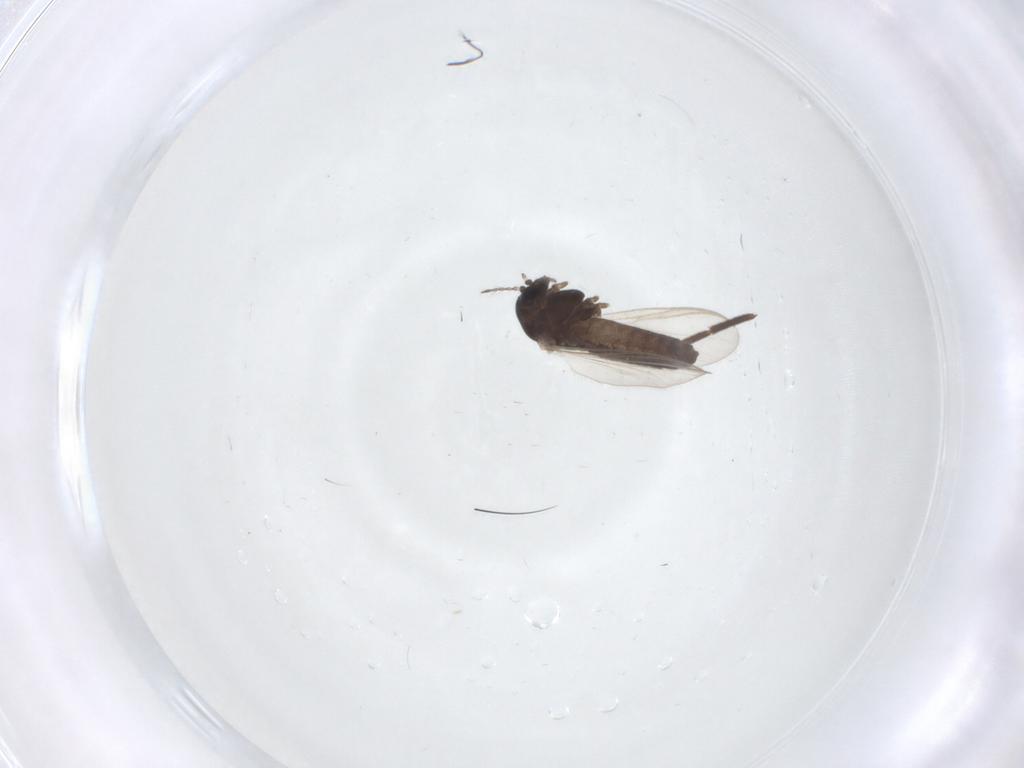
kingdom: Animalia
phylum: Arthropoda
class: Insecta
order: Diptera
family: Chironomidae
